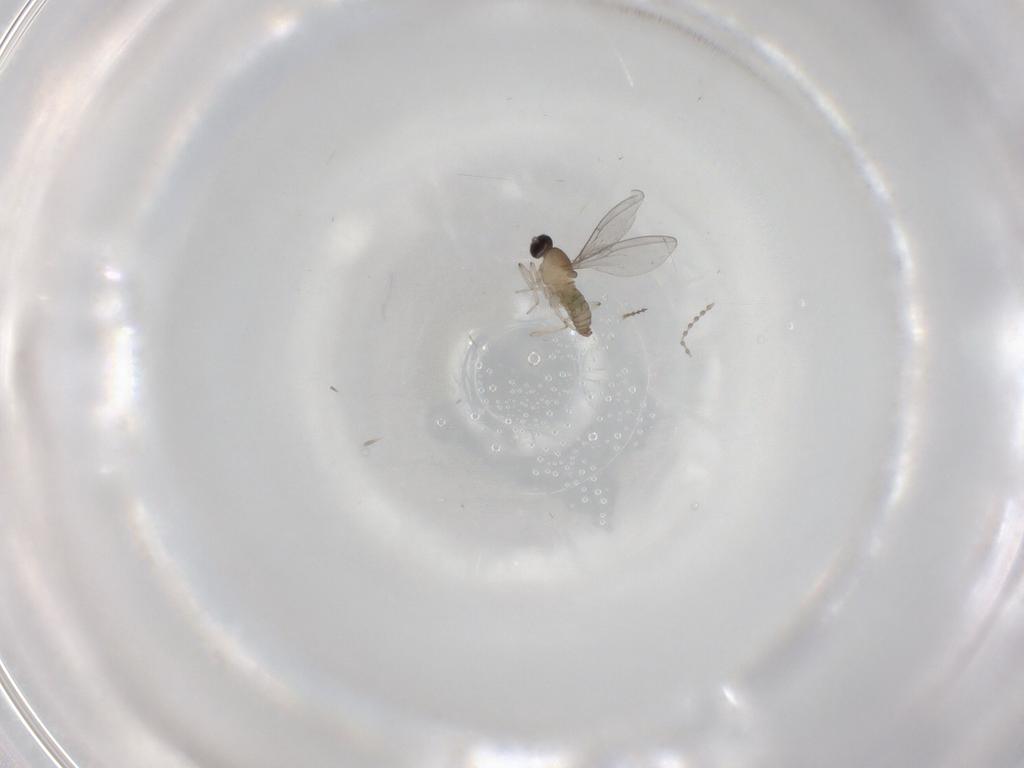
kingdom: Animalia
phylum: Arthropoda
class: Insecta
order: Diptera
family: Cecidomyiidae
